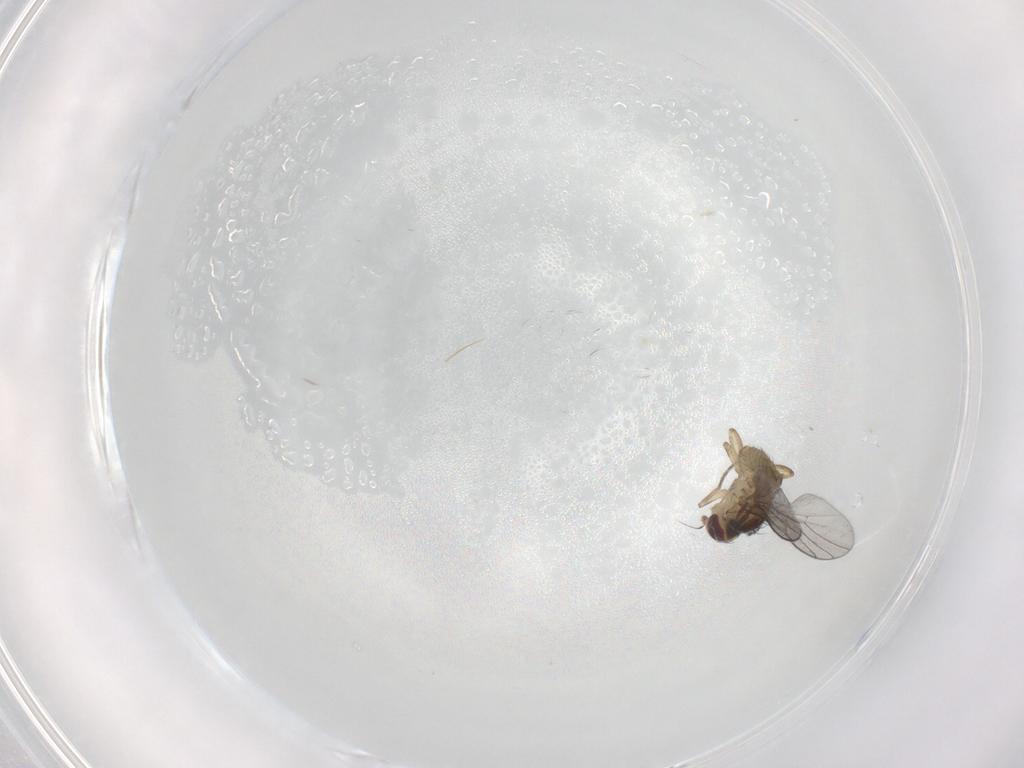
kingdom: Animalia
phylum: Arthropoda
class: Insecta
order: Diptera
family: Agromyzidae
